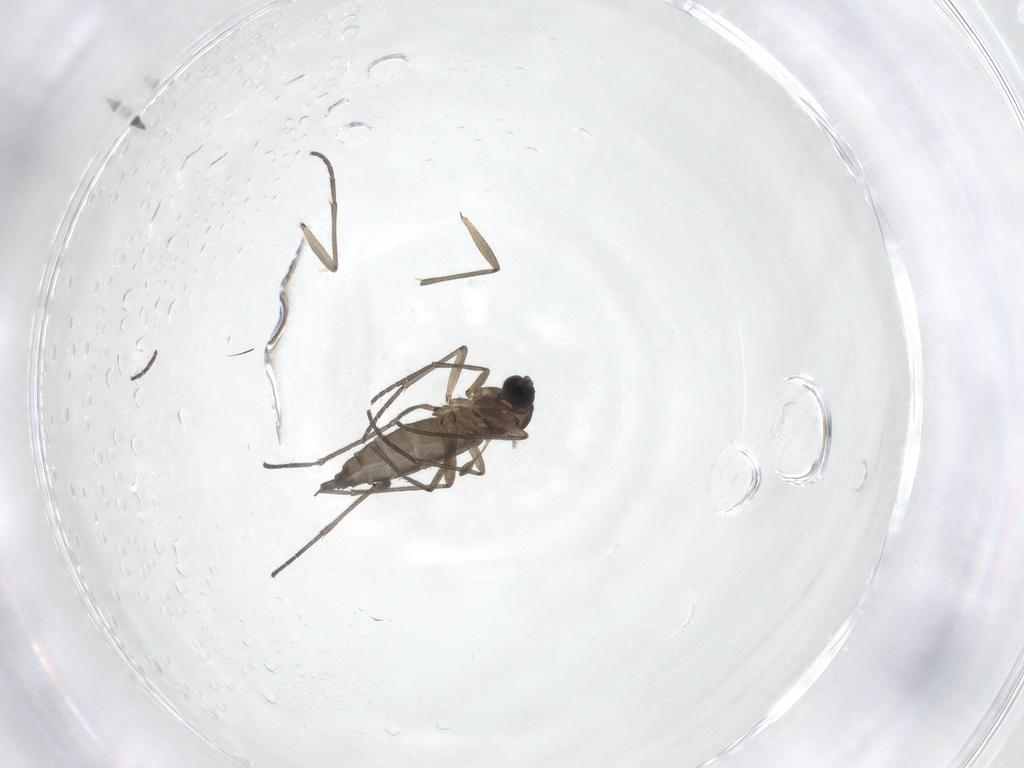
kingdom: Animalia
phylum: Arthropoda
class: Insecta
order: Diptera
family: Sciaridae
